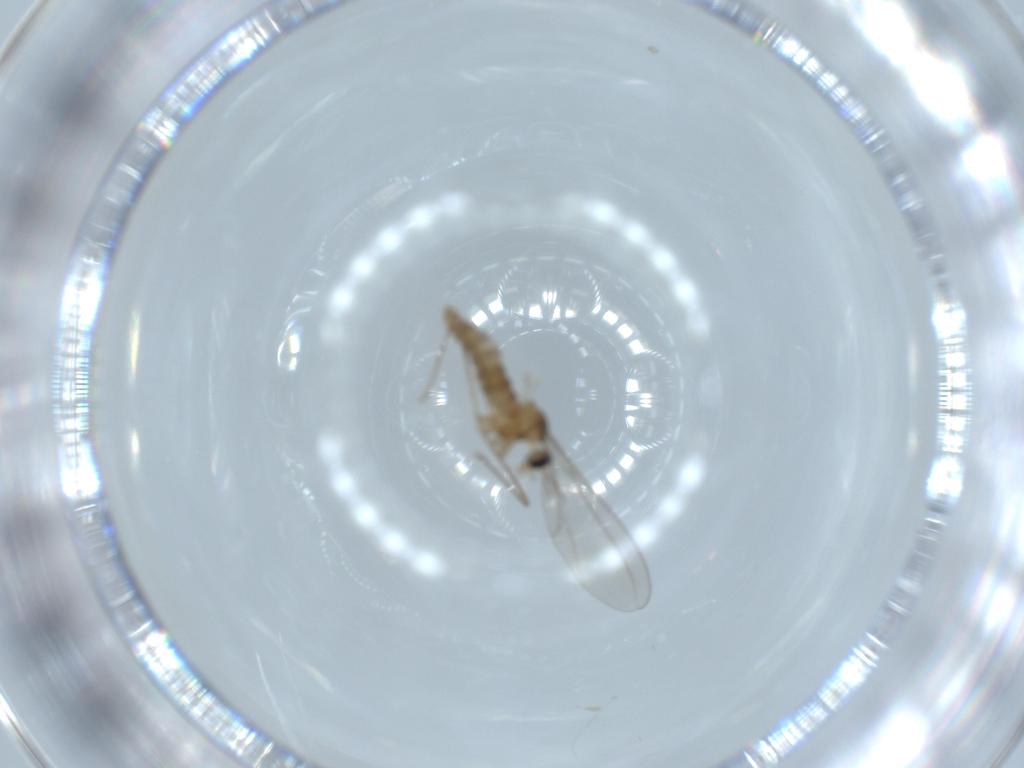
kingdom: Animalia
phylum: Arthropoda
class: Insecta
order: Diptera
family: Cecidomyiidae
